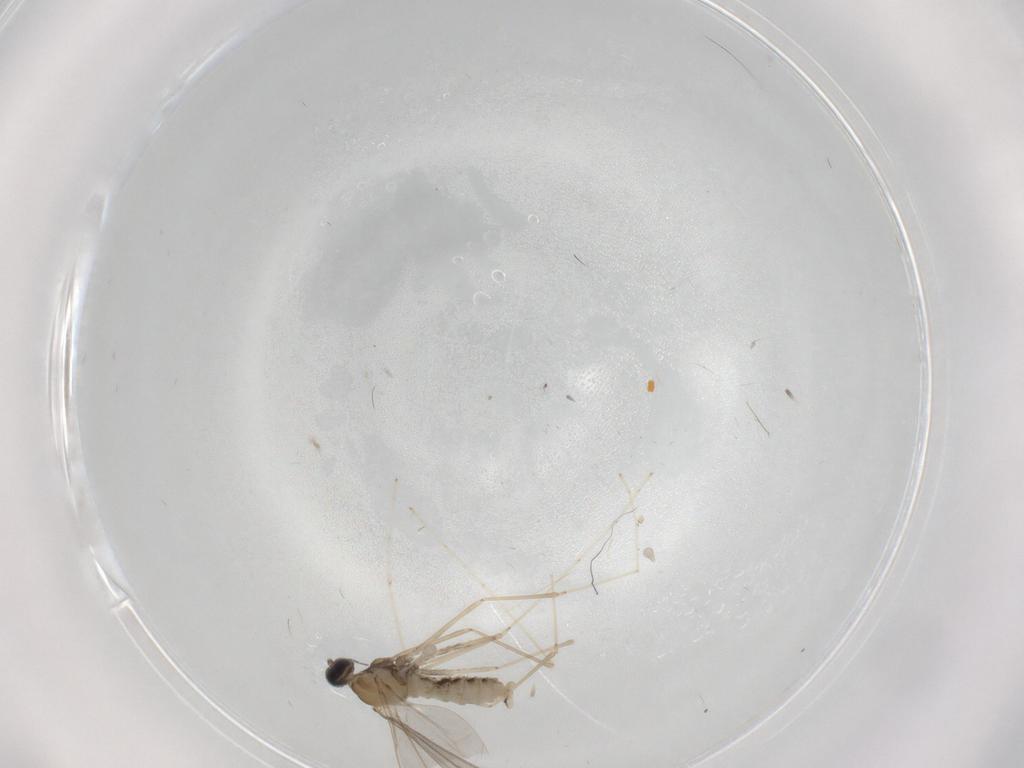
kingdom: Animalia
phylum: Arthropoda
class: Insecta
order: Diptera
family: Cecidomyiidae
